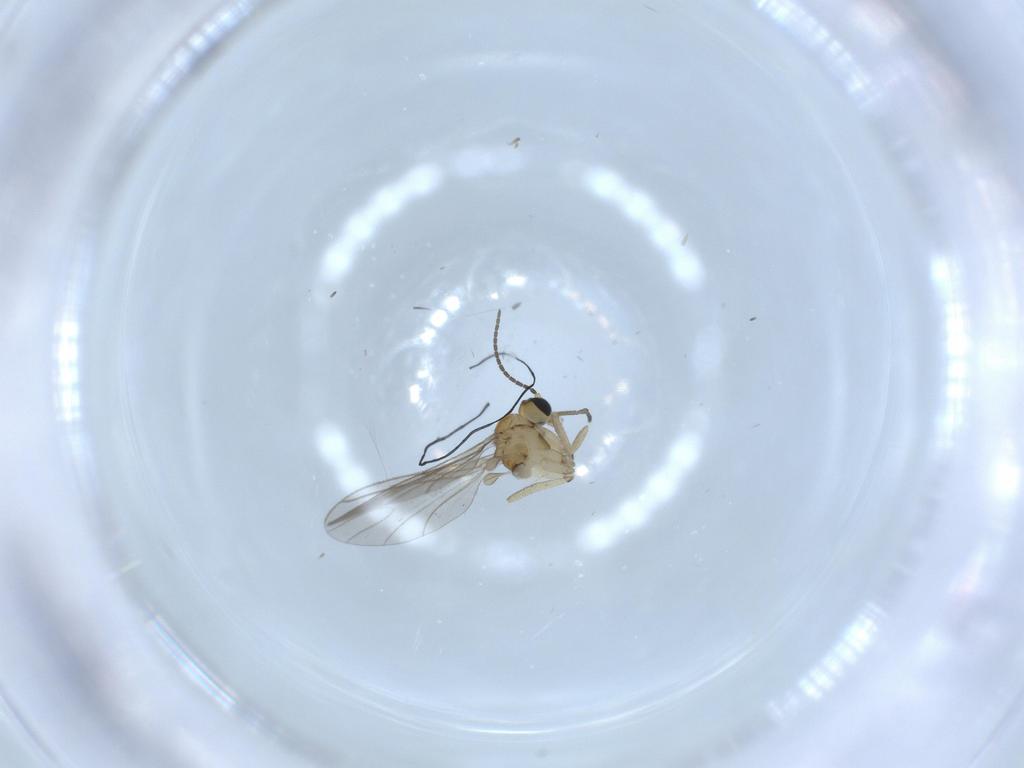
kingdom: Animalia
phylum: Arthropoda
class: Insecta
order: Diptera
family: Sciaridae
